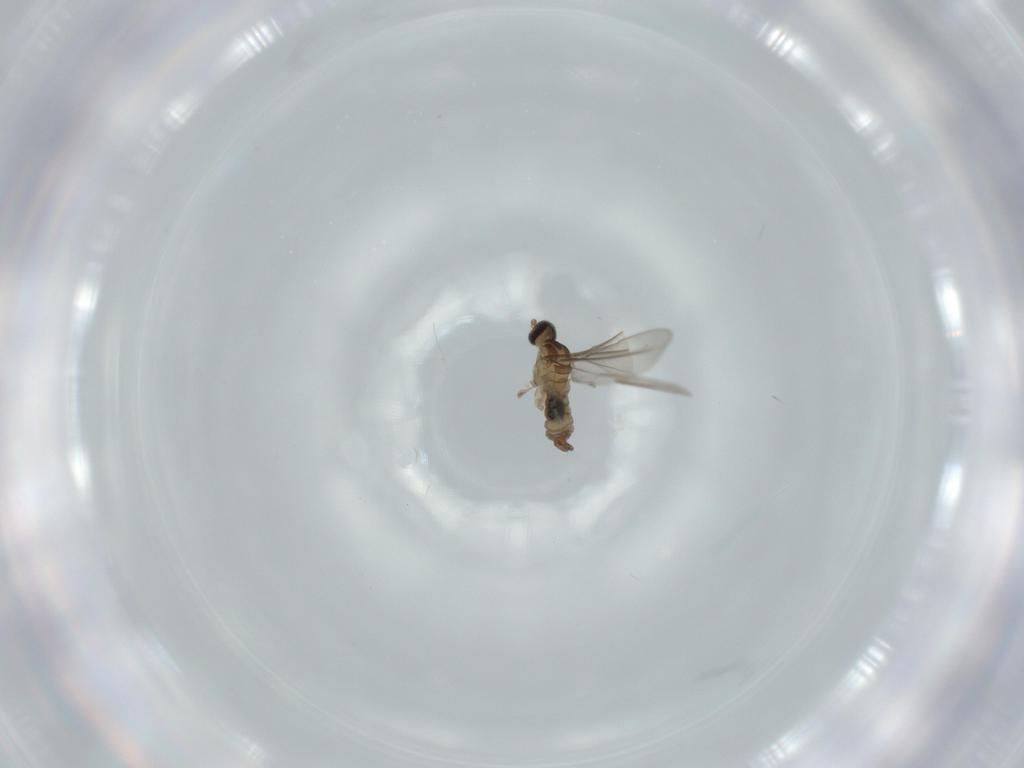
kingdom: Animalia
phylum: Arthropoda
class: Insecta
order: Diptera
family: Cecidomyiidae
